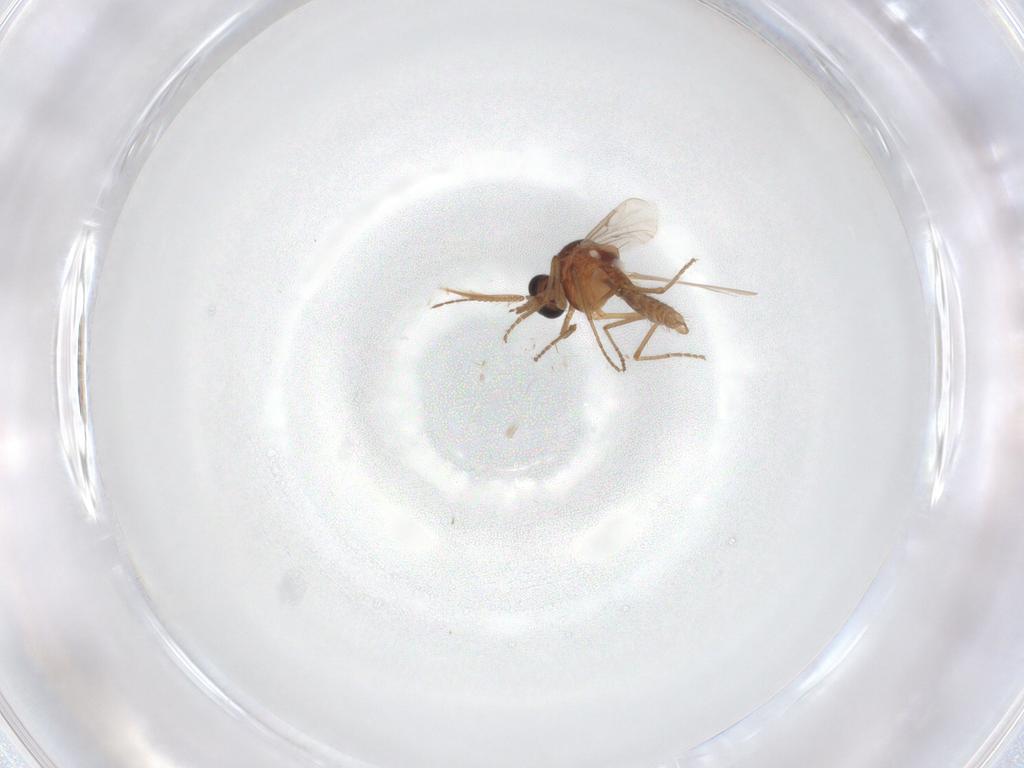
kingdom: Animalia
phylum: Arthropoda
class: Insecta
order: Diptera
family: Ceratopogonidae
